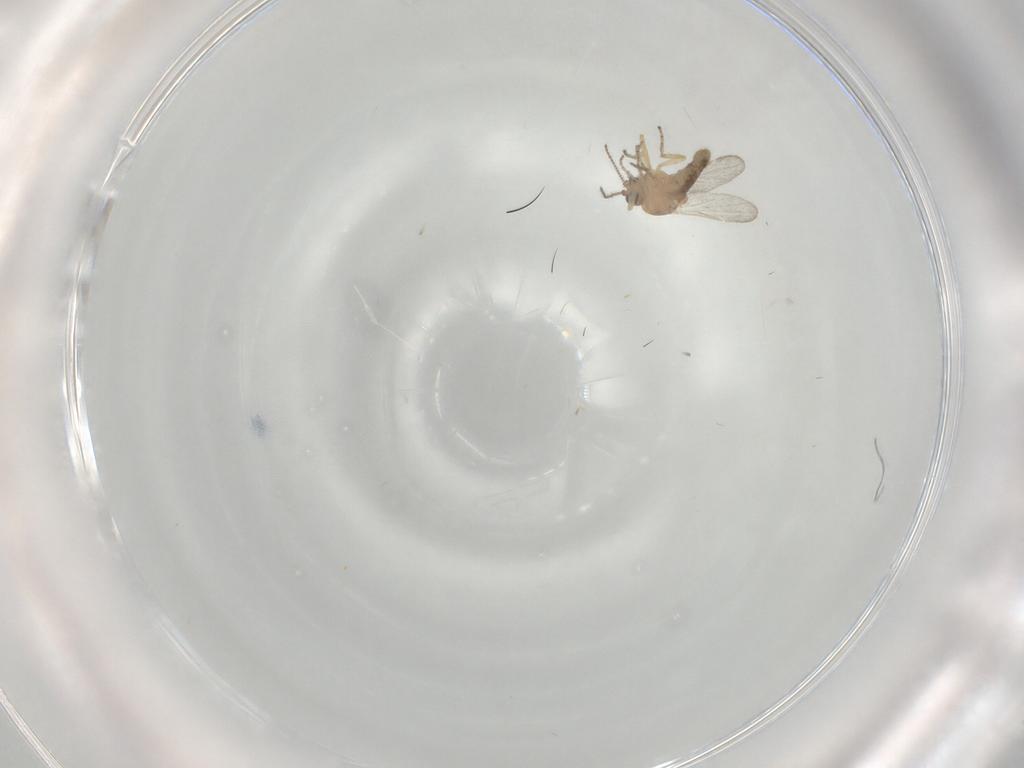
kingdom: Animalia
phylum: Arthropoda
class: Insecta
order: Diptera
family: Ceratopogonidae
